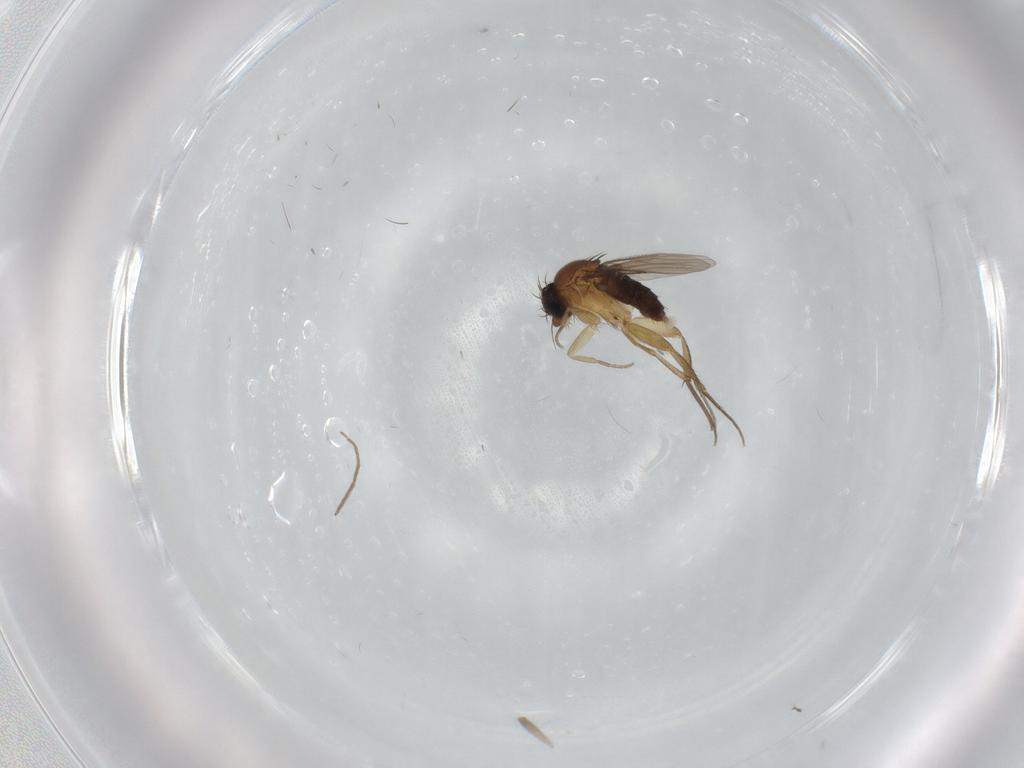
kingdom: Animalia
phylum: Arthropoda
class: Insecta
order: Diptera
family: Phoridae
